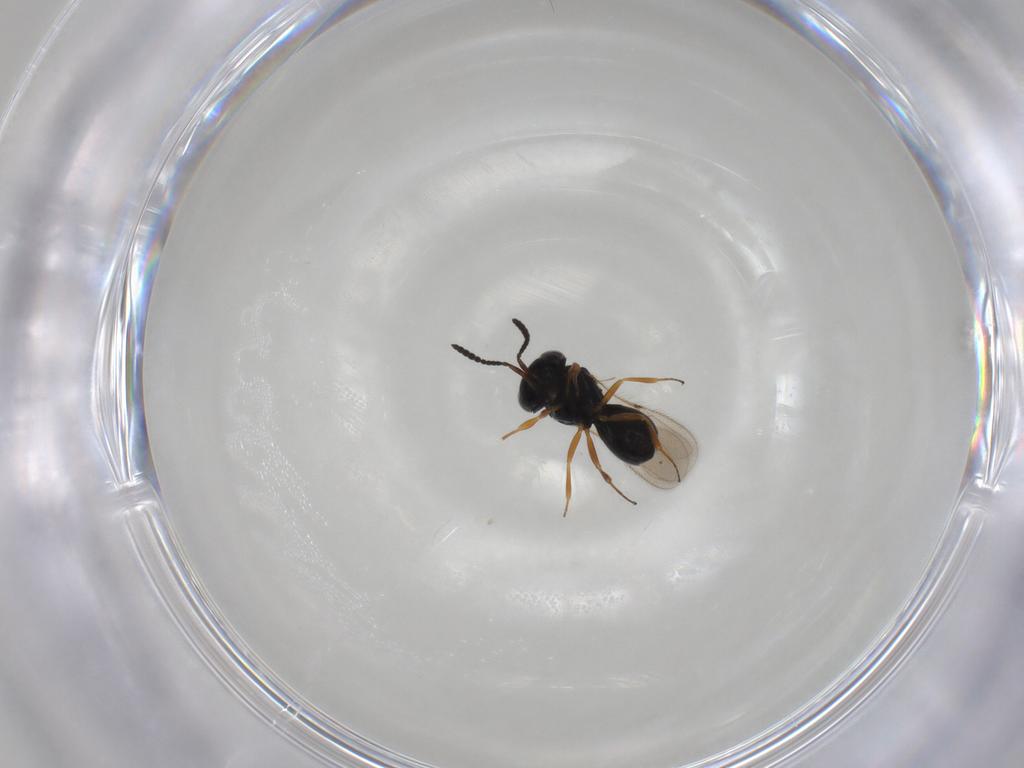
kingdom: Animalia
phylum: Arthropoda
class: Insecta
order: Hymenoptera
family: Scelionidae
